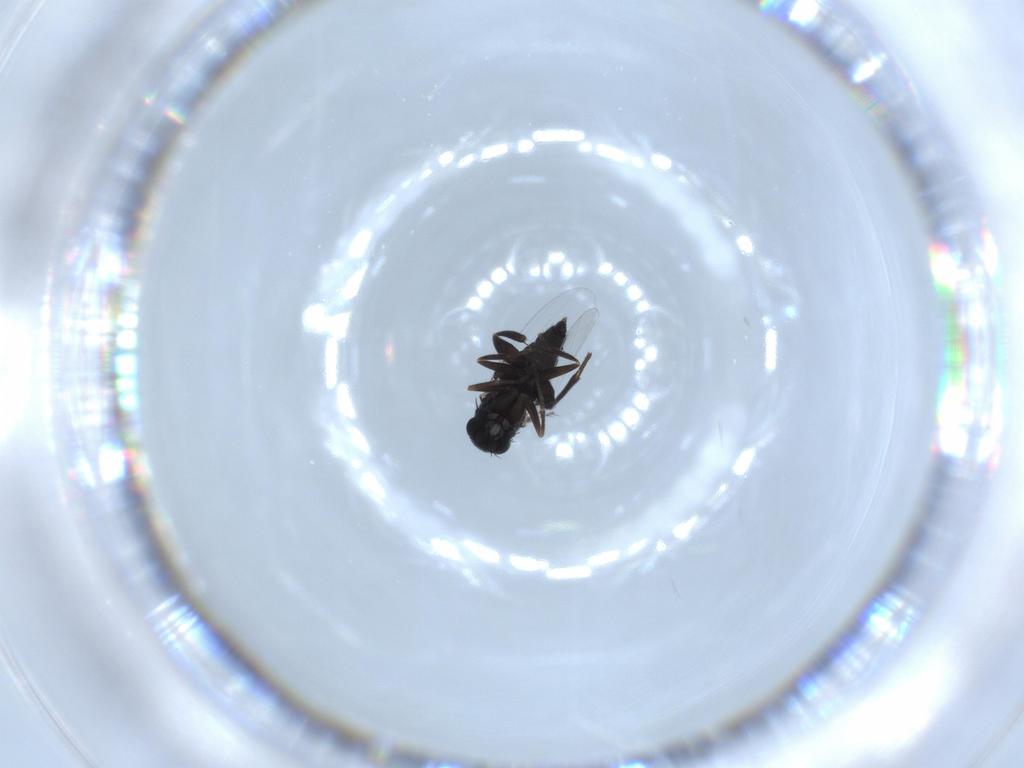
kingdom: Animalia
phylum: Arthropoda
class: Insecta
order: Diptera
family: Phoridae
